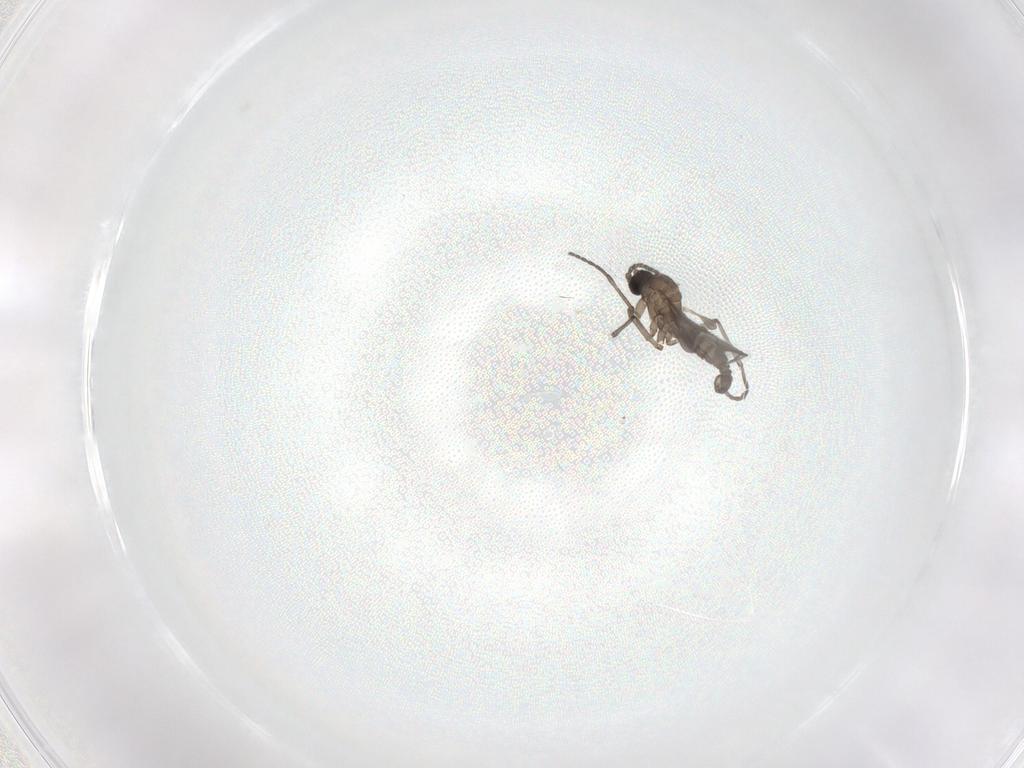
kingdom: Animalia
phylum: Arthropoda
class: Insecta
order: Diptera
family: Sciaridae
